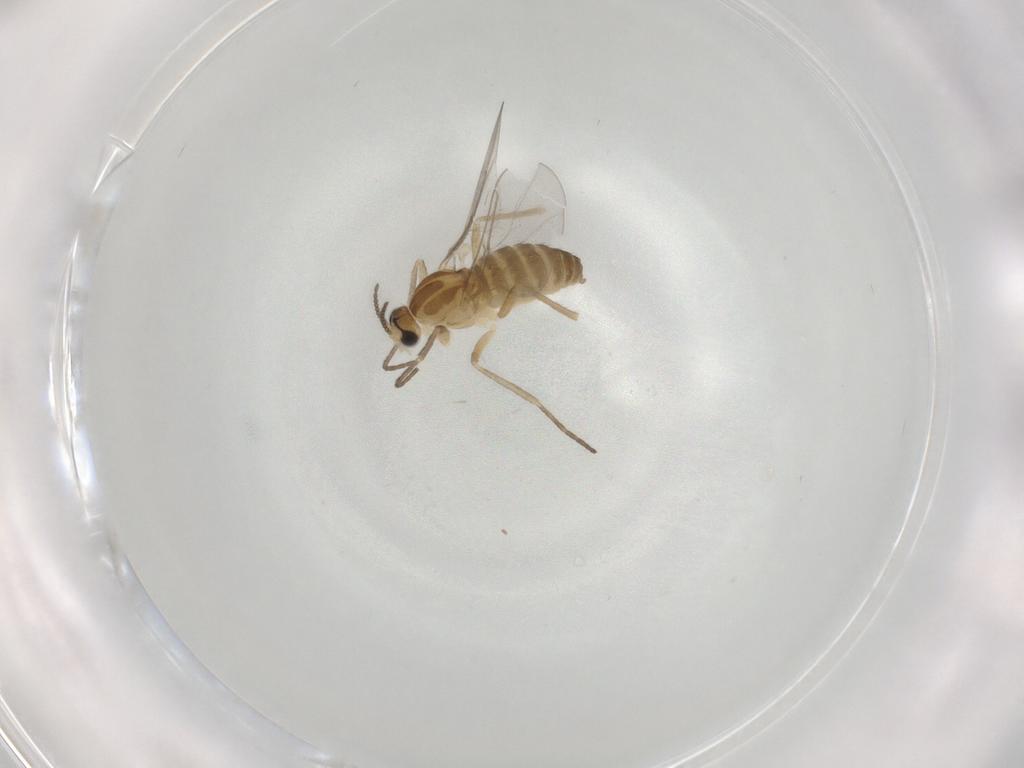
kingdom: Animalia
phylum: Arthropoda
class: Insecta
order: Diptera
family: Cecidomyiidae
